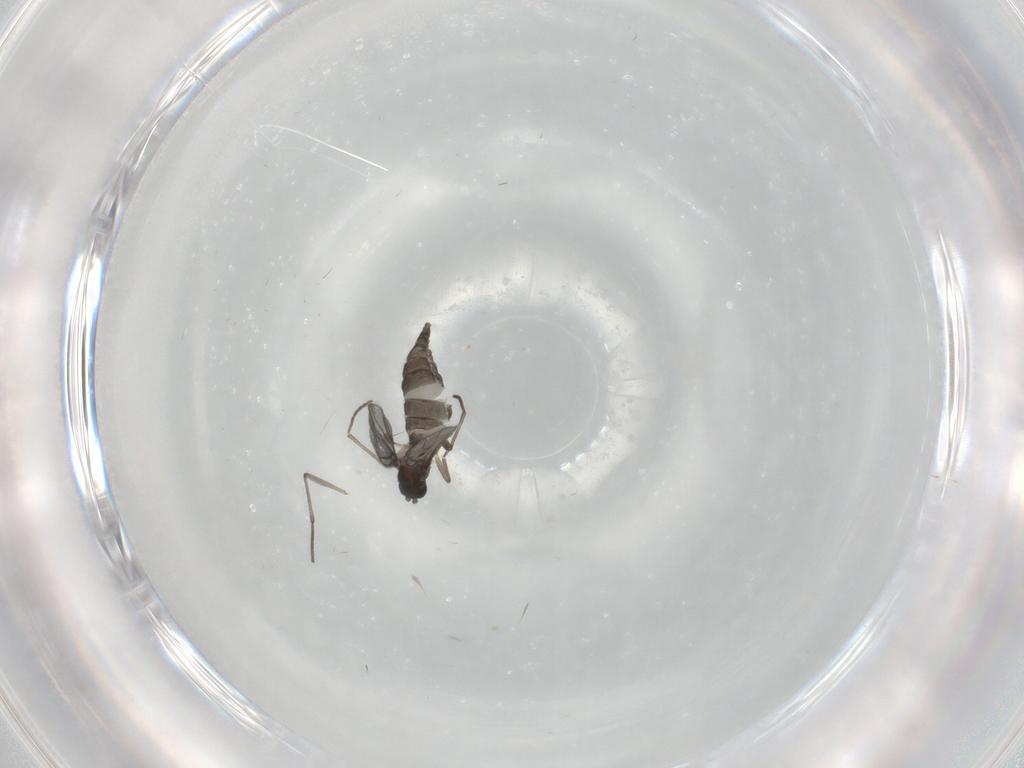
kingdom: Animalia
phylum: Arthropoda
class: Insecta
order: Diptera
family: Sciaridae
